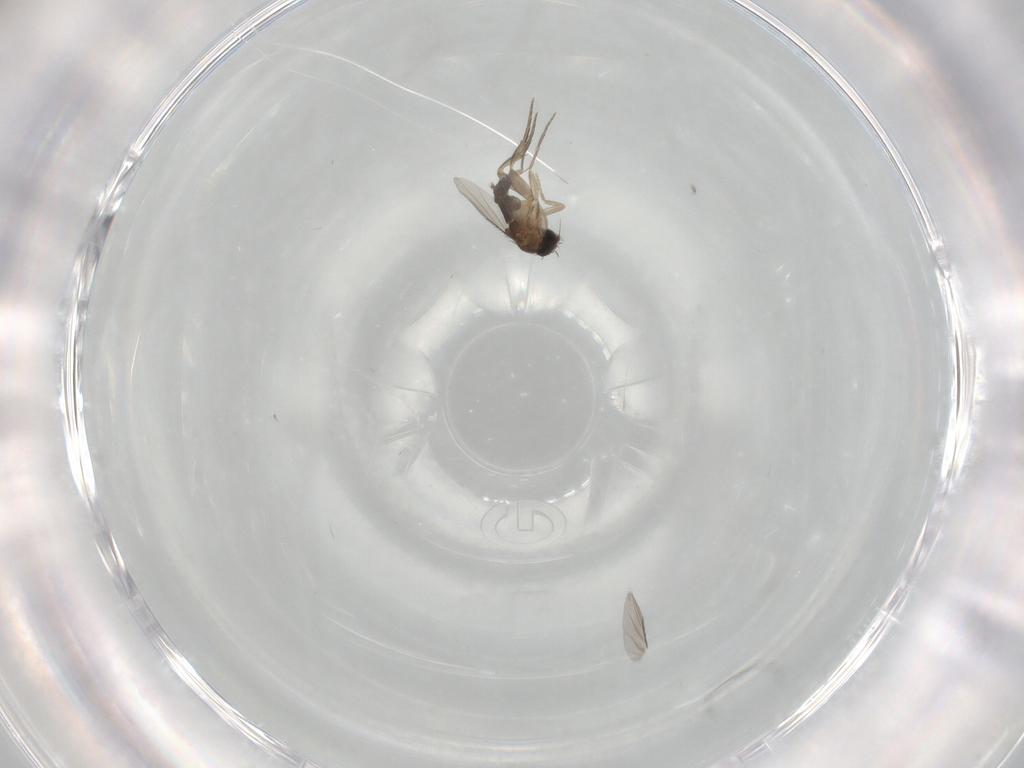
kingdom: Animalia
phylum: Arthropoda
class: Insecta
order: Diptera
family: Phoridae
